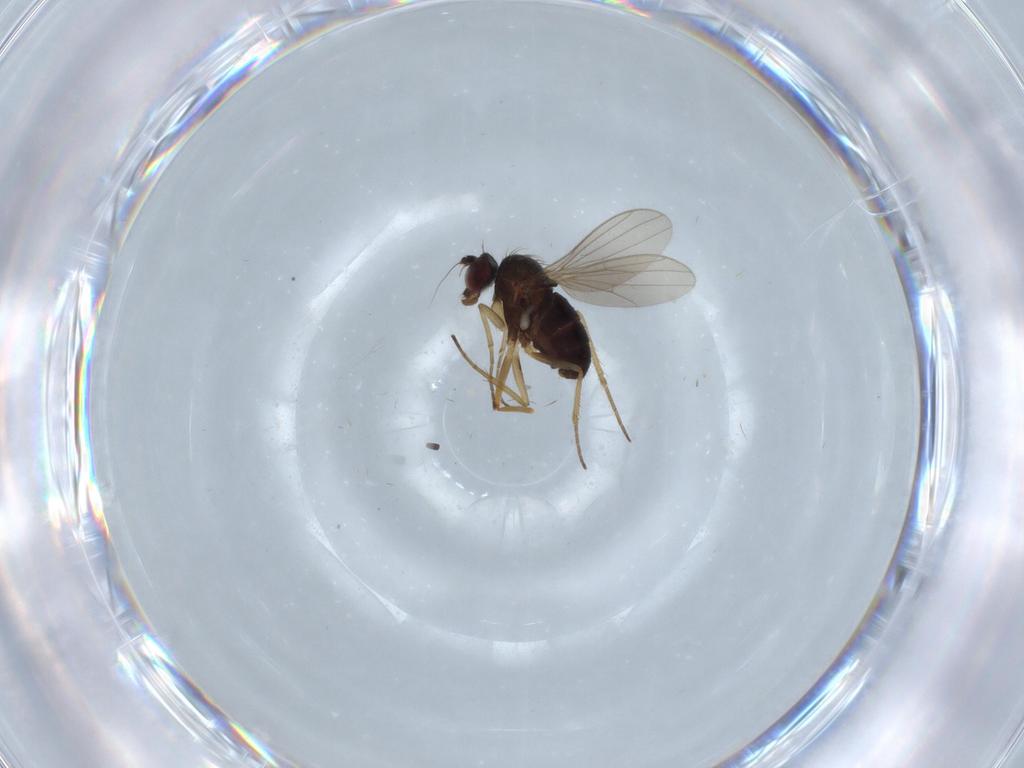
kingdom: Animalia
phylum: Arthropoda
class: Insecta
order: Diptera
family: Dolichopodidae
